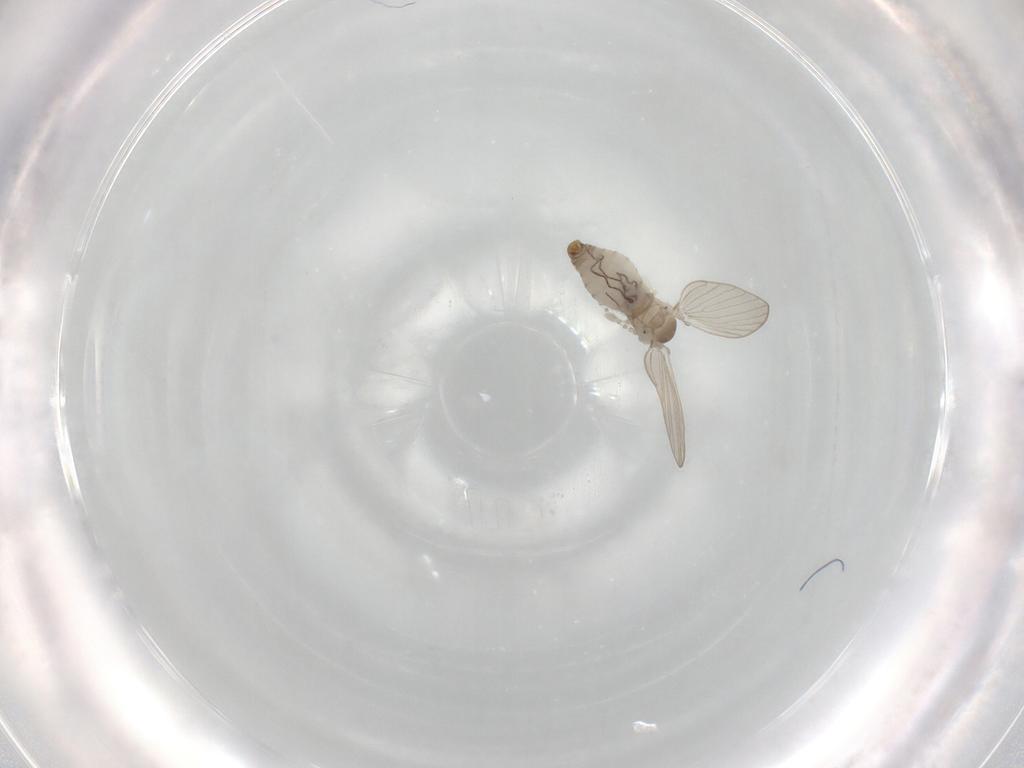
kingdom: Animalia
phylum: Arthropoda
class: Insecta
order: Diptera
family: Psychodidae
